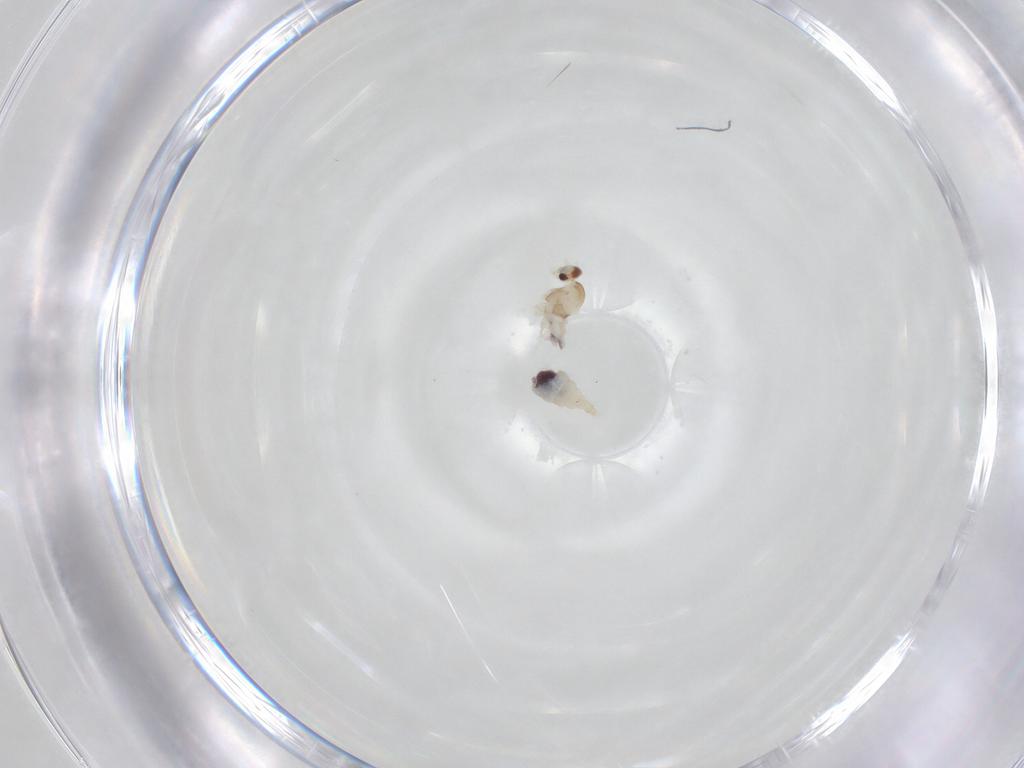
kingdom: Animalia
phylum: Arthropoda
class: Insecta
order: Diptera
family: Cecidomyiidae
